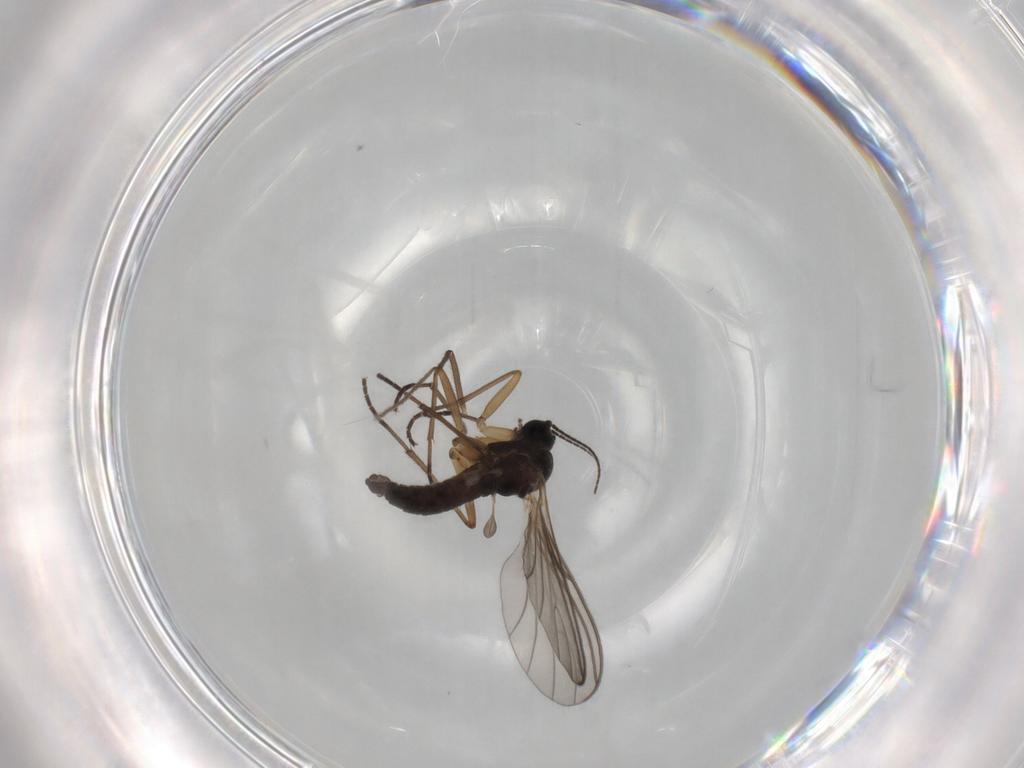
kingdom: Animalia
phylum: Arthropoda
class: Insecta
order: Diptera
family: Sciaridae
